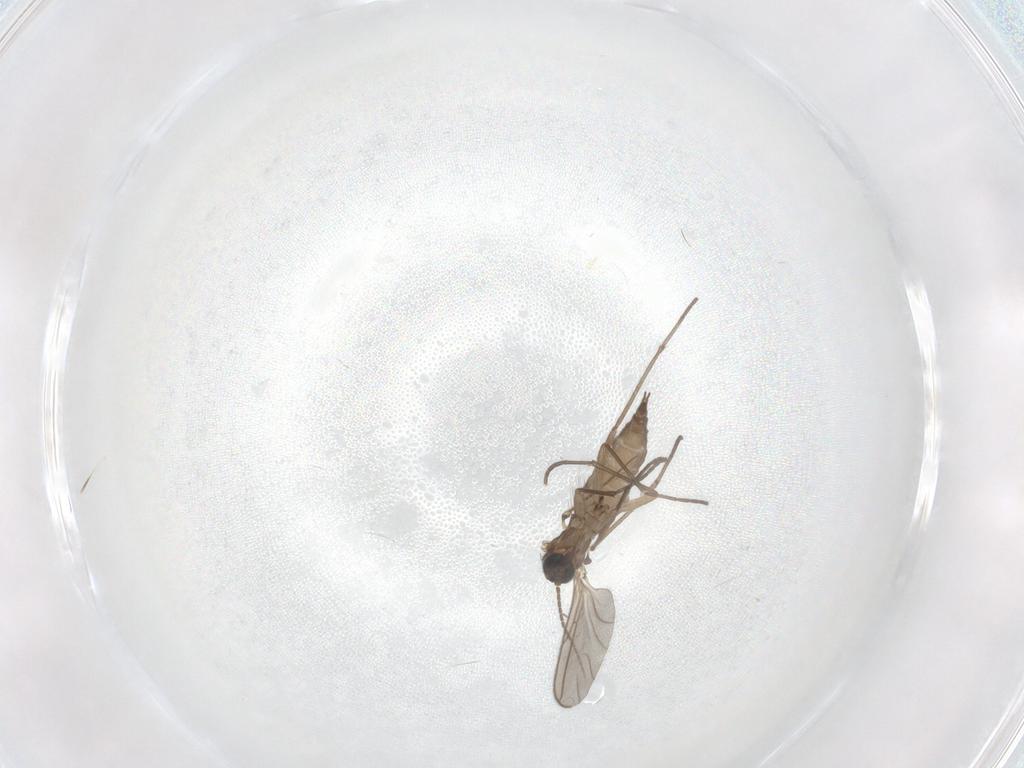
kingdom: Animalia
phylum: Arthropoda
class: Insecta
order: Diptera
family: Sciaridae
